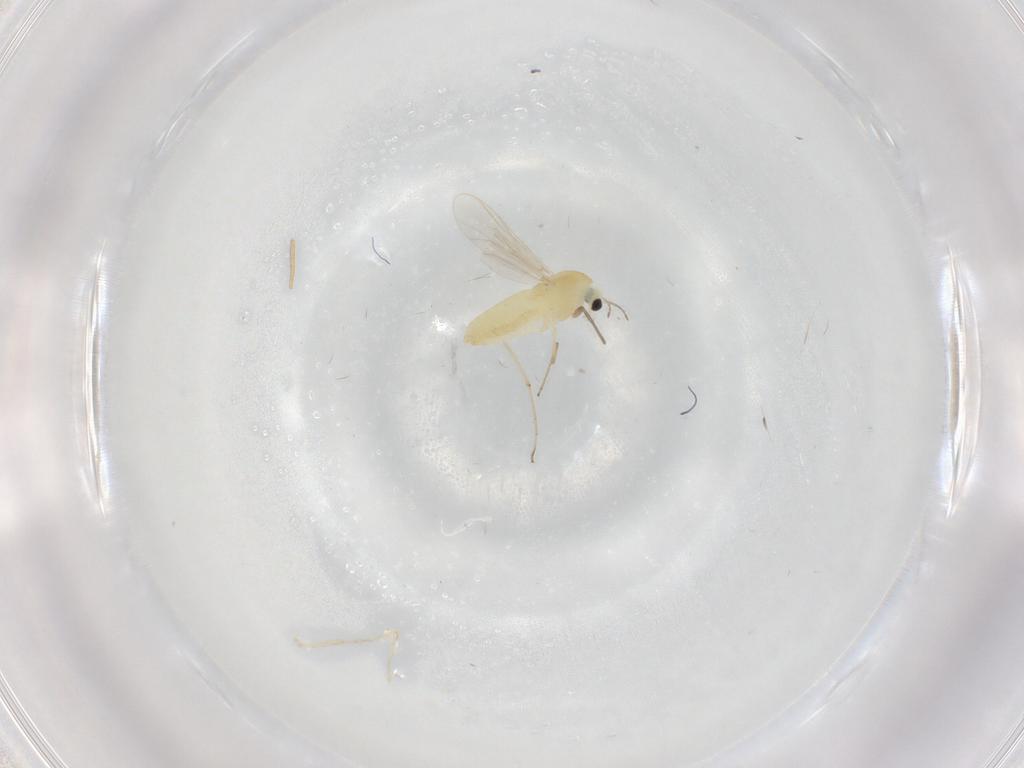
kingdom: Animalia
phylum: Arthropoda
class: Insecta
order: Diptera
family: Chironomidae
